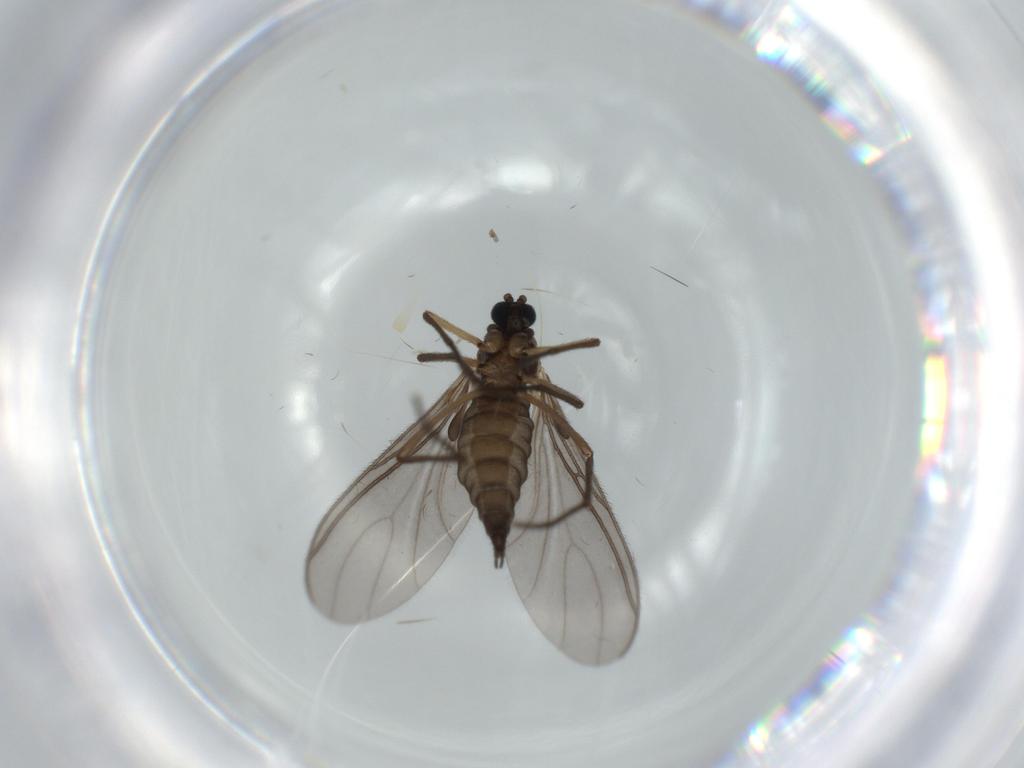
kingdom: Animalia
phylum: Arthropoda
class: Insecta
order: Diptera
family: Sciaridae
